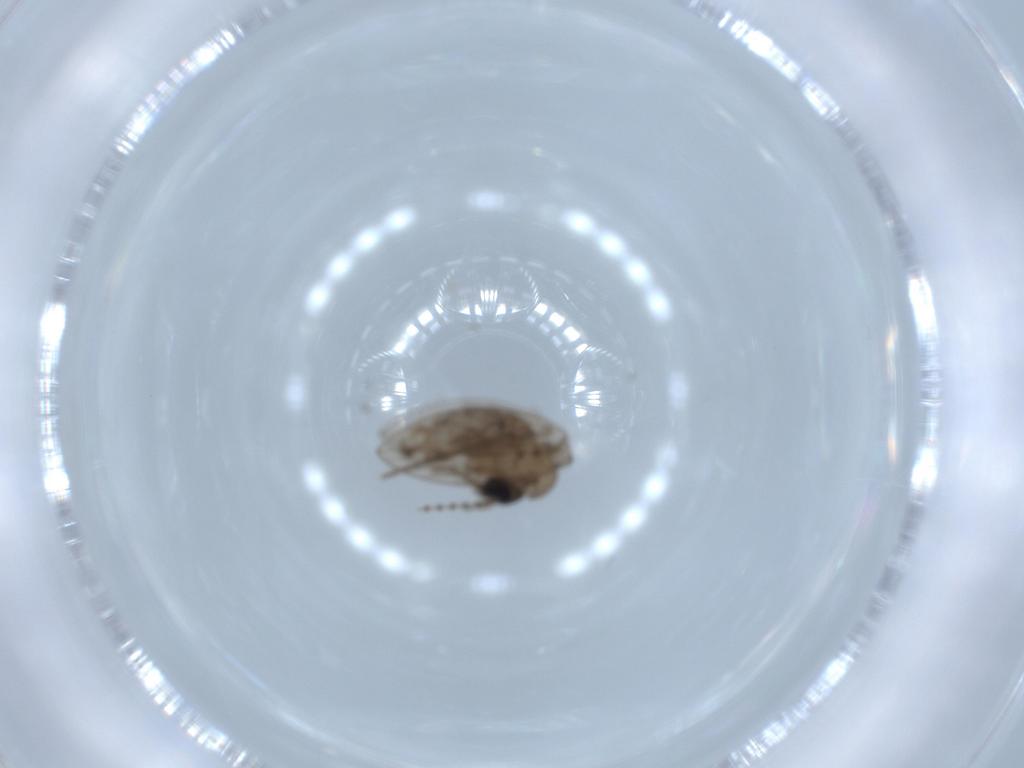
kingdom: Animalia
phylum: Arthropoda
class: Insecta
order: Diptera
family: Psychodidae
